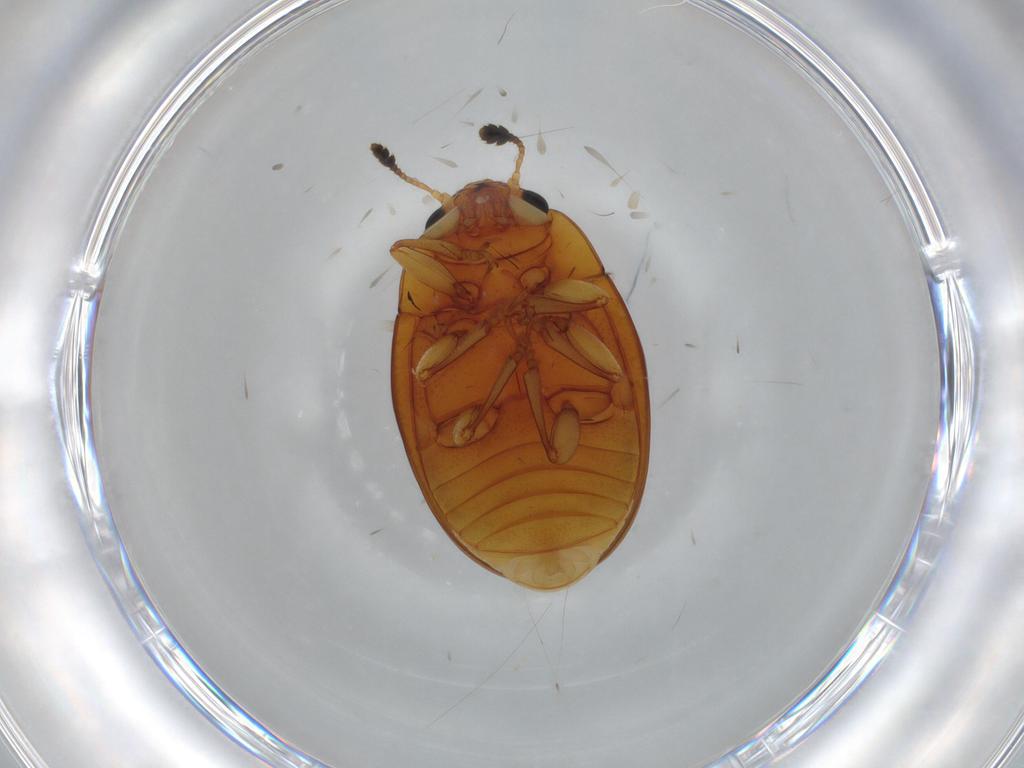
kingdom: Animalia
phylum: Arthropoda
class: Insecta
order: Coleoptera
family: Erotylidae
